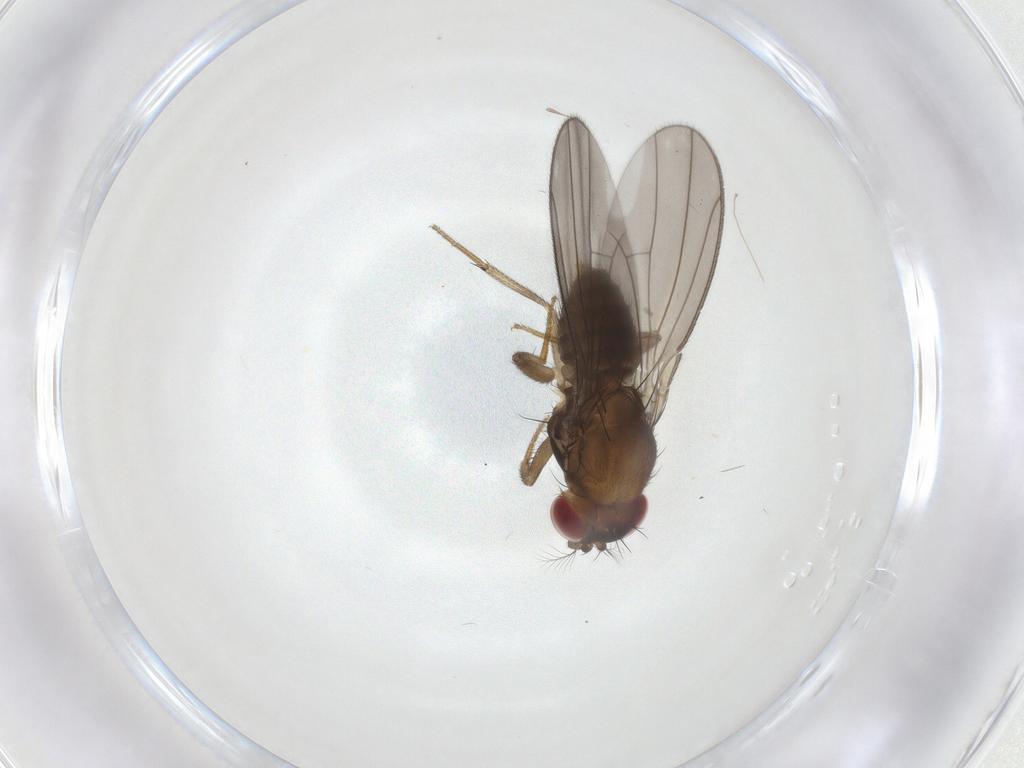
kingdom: Animalia
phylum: Arthropoda
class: Insecta
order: Diptera
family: Drosophilidae
